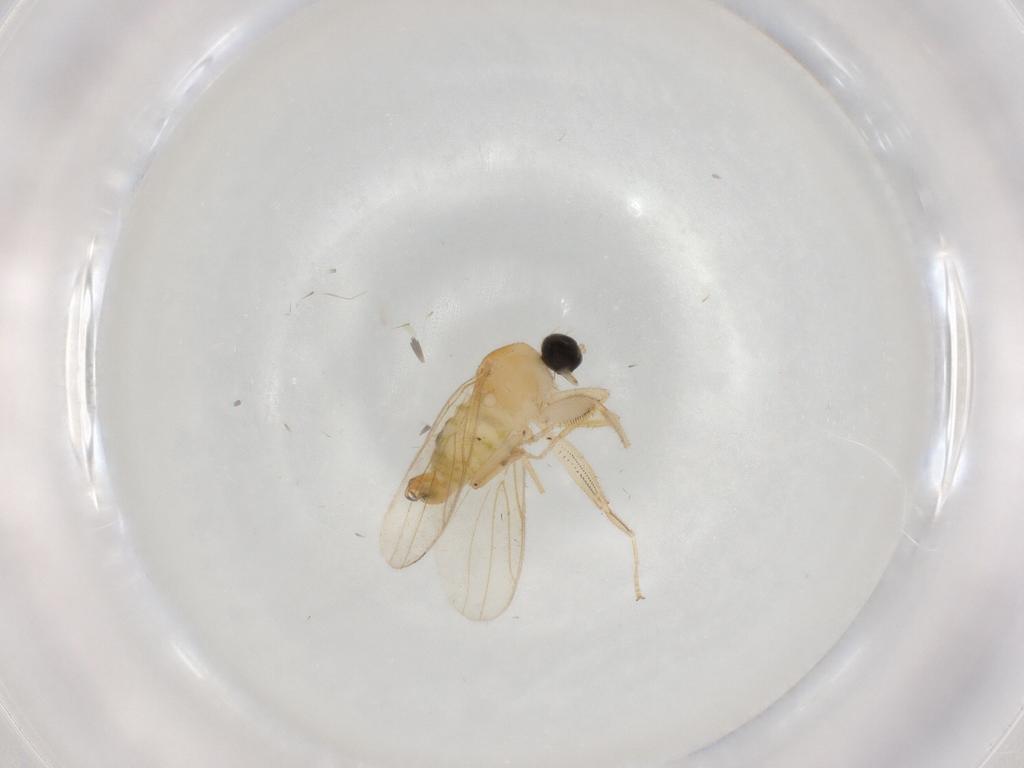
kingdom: Animalia
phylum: Arthropoda
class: Insecta
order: Diptera
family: Hybotidae
